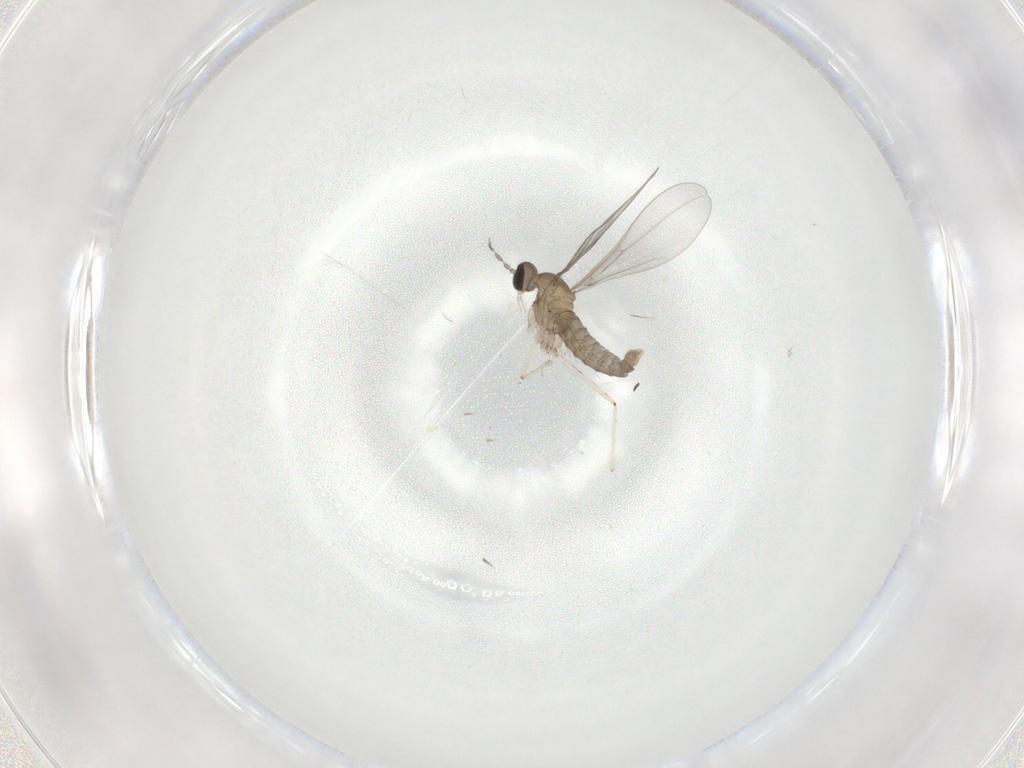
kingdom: Animalia
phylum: Arthropoda
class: Insecta
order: Diptera
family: Cecidomyiidae
